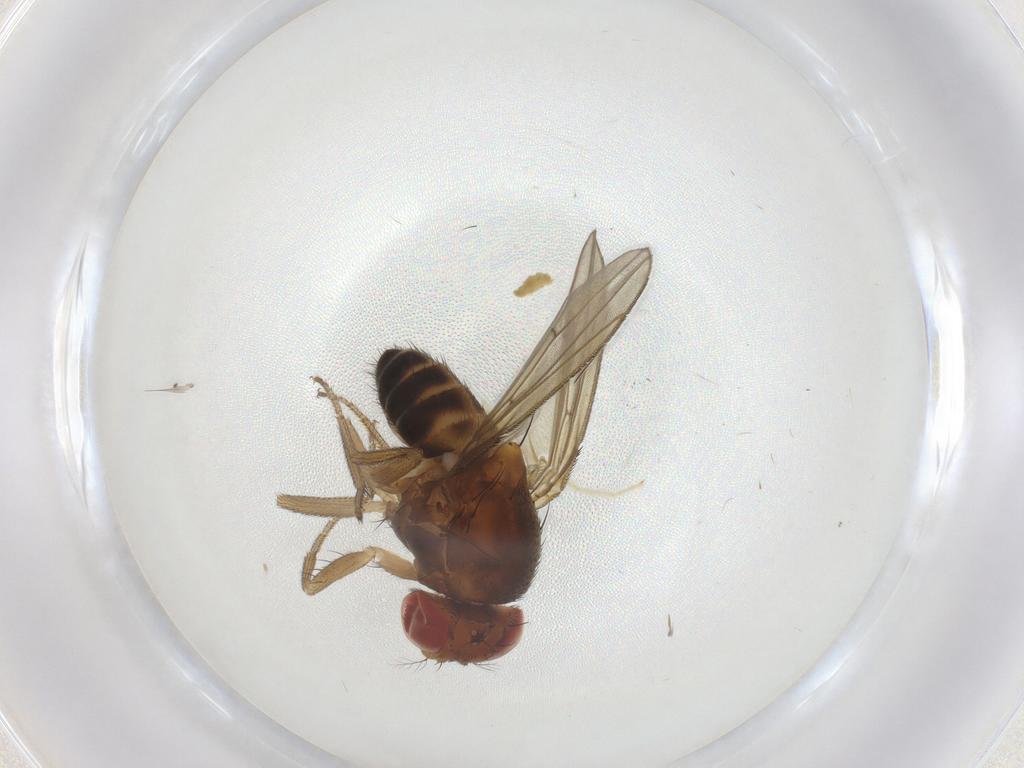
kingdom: Animalia
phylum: Arthropoda
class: Insecta
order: Diptera
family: Drosophilidae
